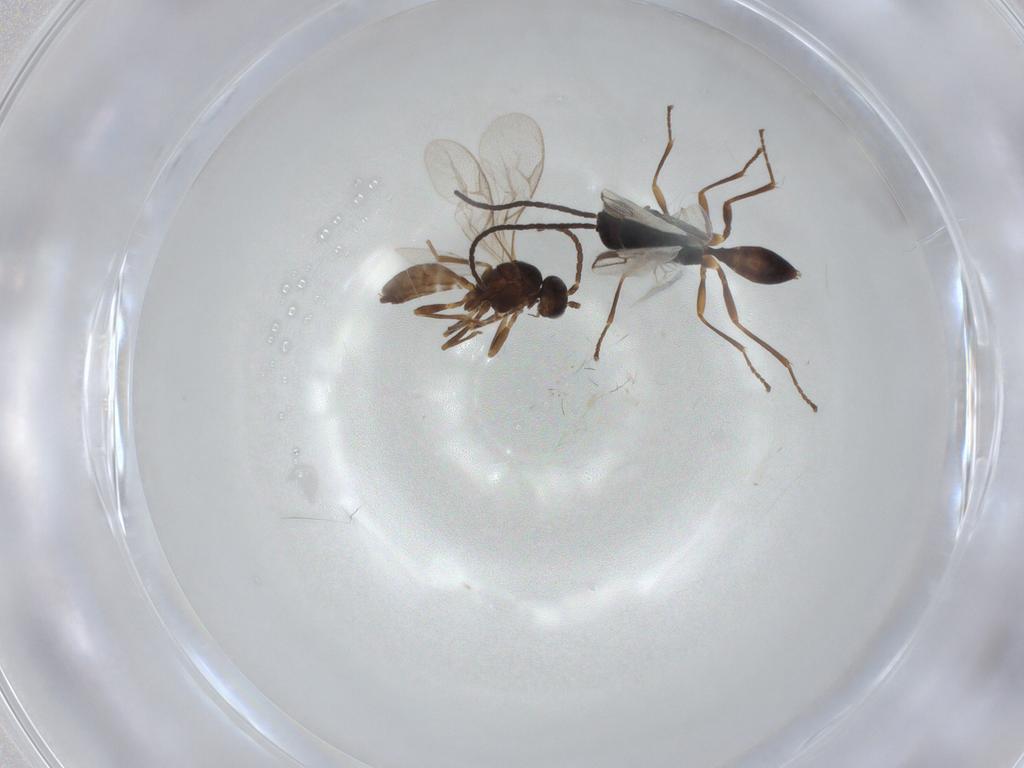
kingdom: Animalia
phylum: Arthropoda
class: Insecta
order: Hymenoptera
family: Braconidae
